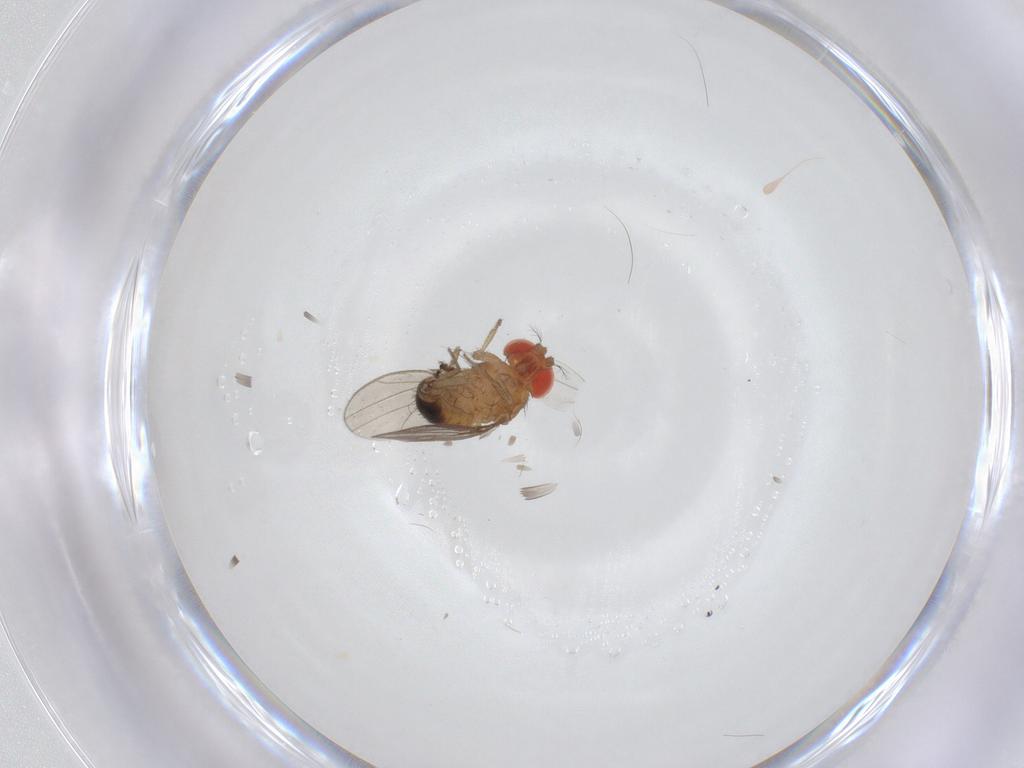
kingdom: Animalia
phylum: Arthropoda
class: Insecta
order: Diptera
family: Drosophilidae
